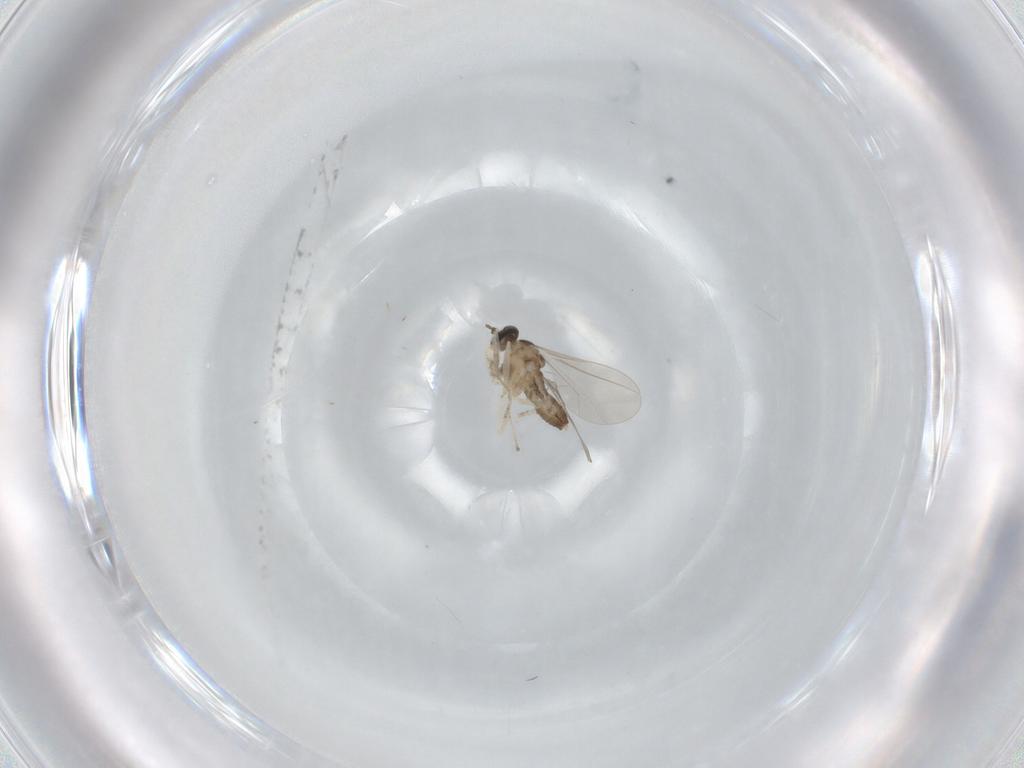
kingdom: Animalia
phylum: Arthropoda
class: Insecta
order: Diptera
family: Cecidomyiidae
